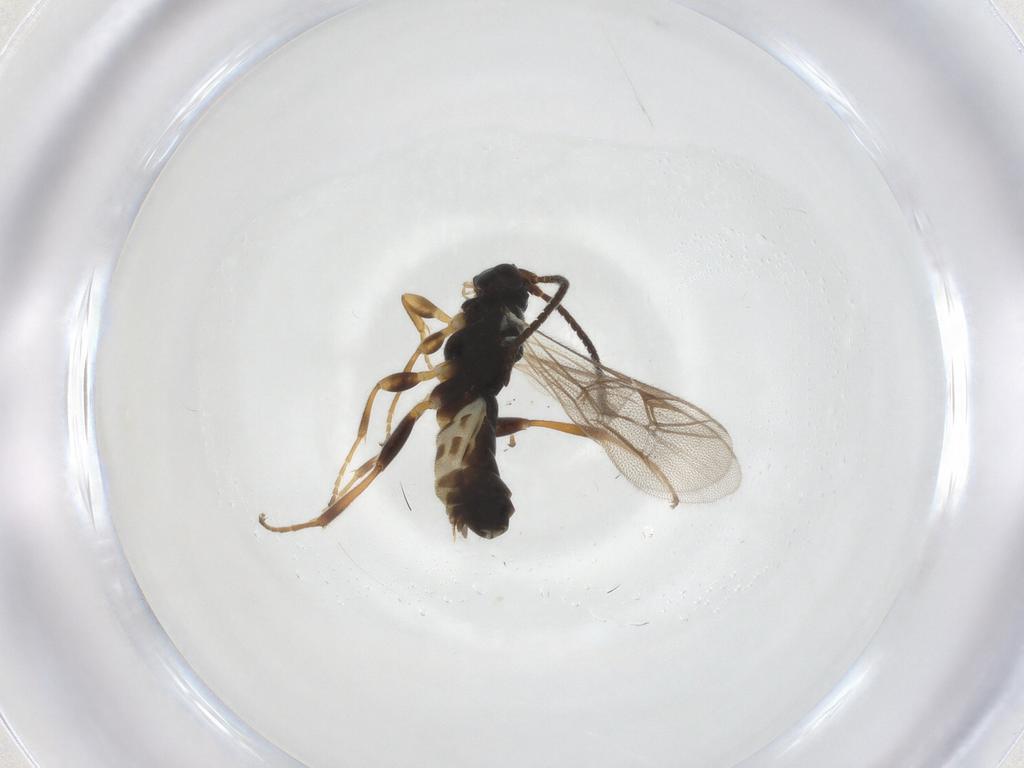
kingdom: Animalia
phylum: Arthropoda
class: Insecta
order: Hymenoptera
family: Ichneumonidae
